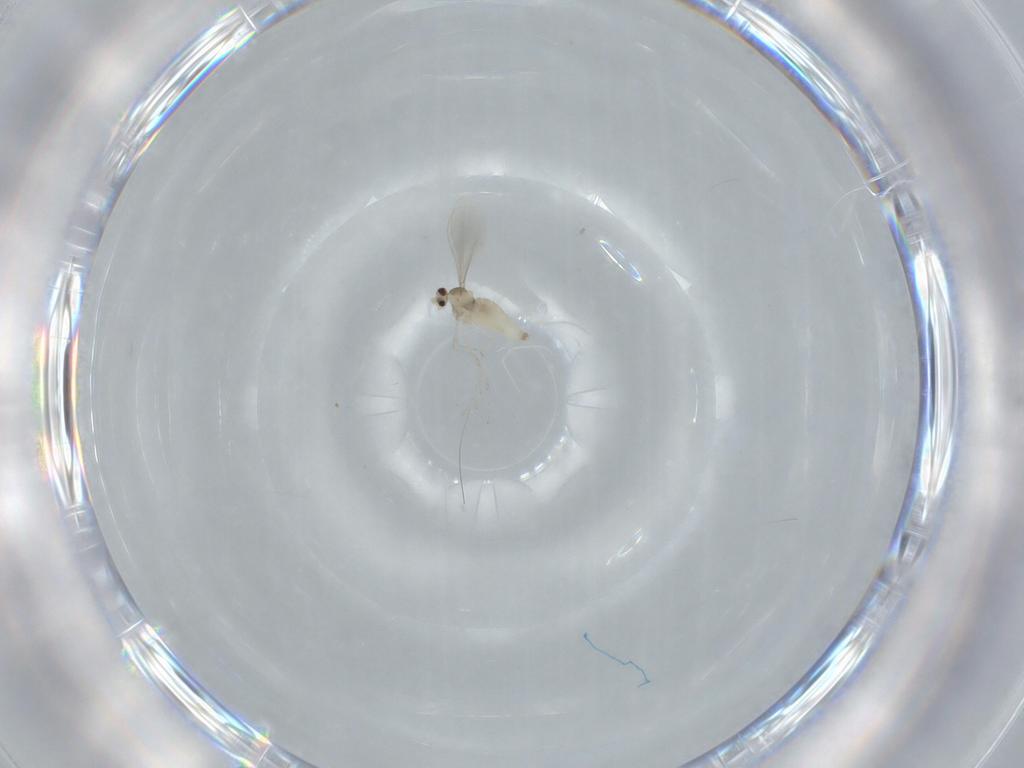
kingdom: Animalia
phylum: Arthropoda
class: Insecta
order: Diptera
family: Cecidomyiidae
